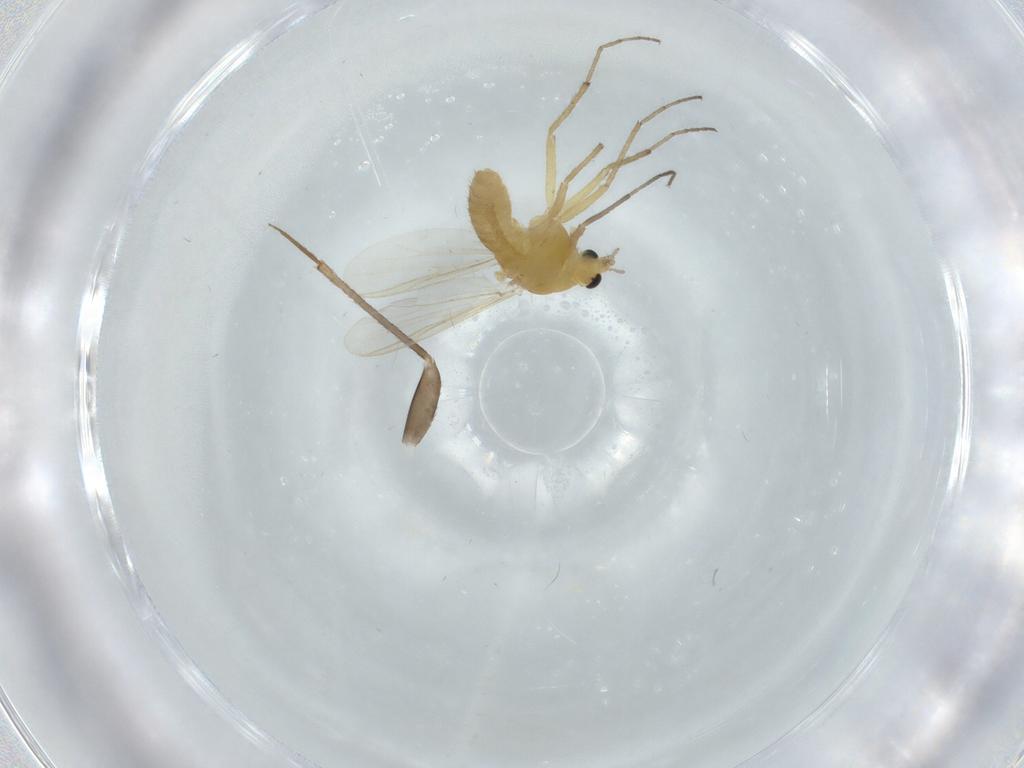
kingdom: Animalia
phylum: Arthropoda
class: Insecta
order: Diptera
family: Chironomidae
